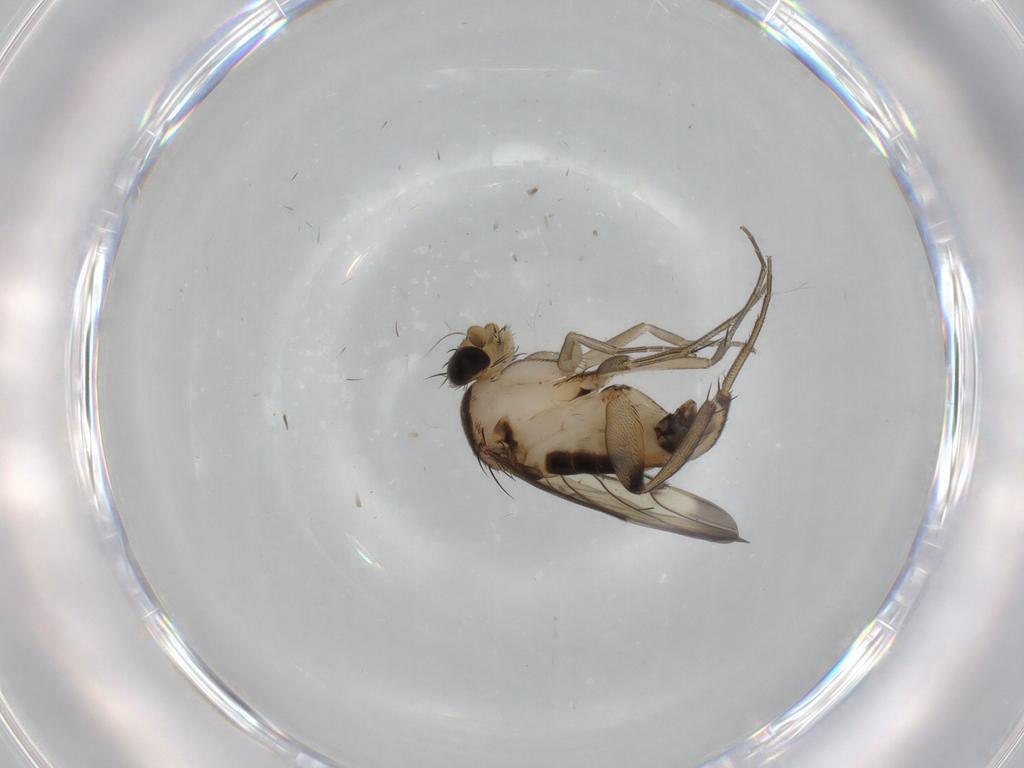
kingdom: Animalia
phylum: Arthropoda
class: Insecta
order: Diptera
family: Phoridae
